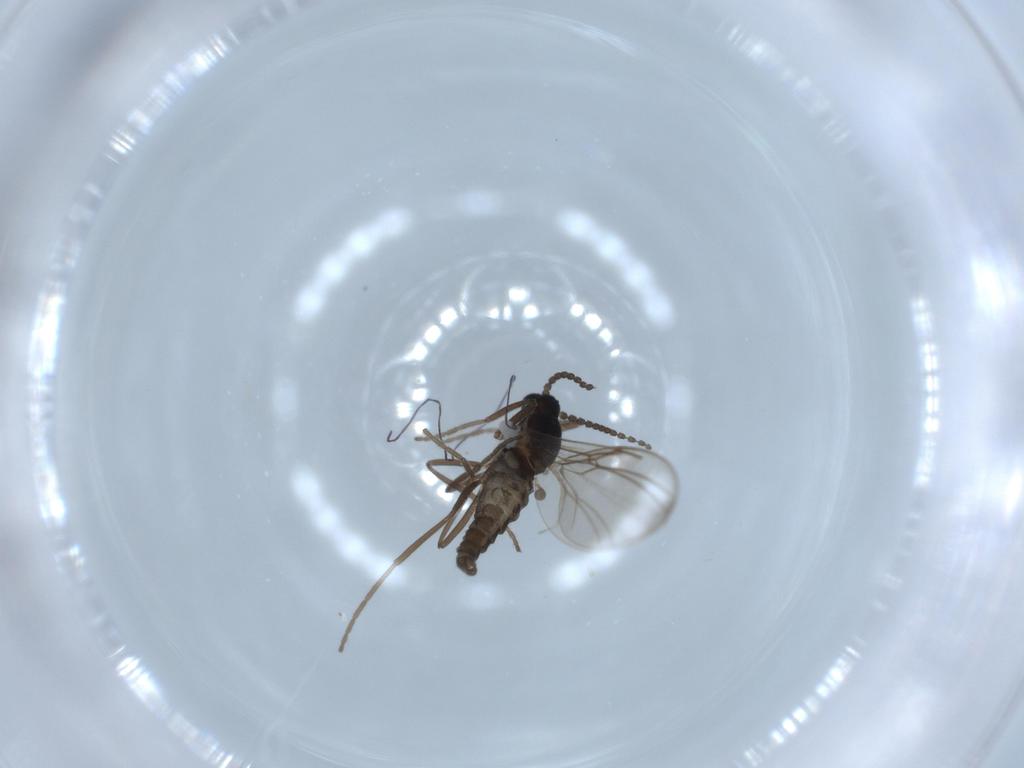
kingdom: Animalia
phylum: Arthropoda
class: Insecta
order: Diptera
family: Cecidomyiidae
